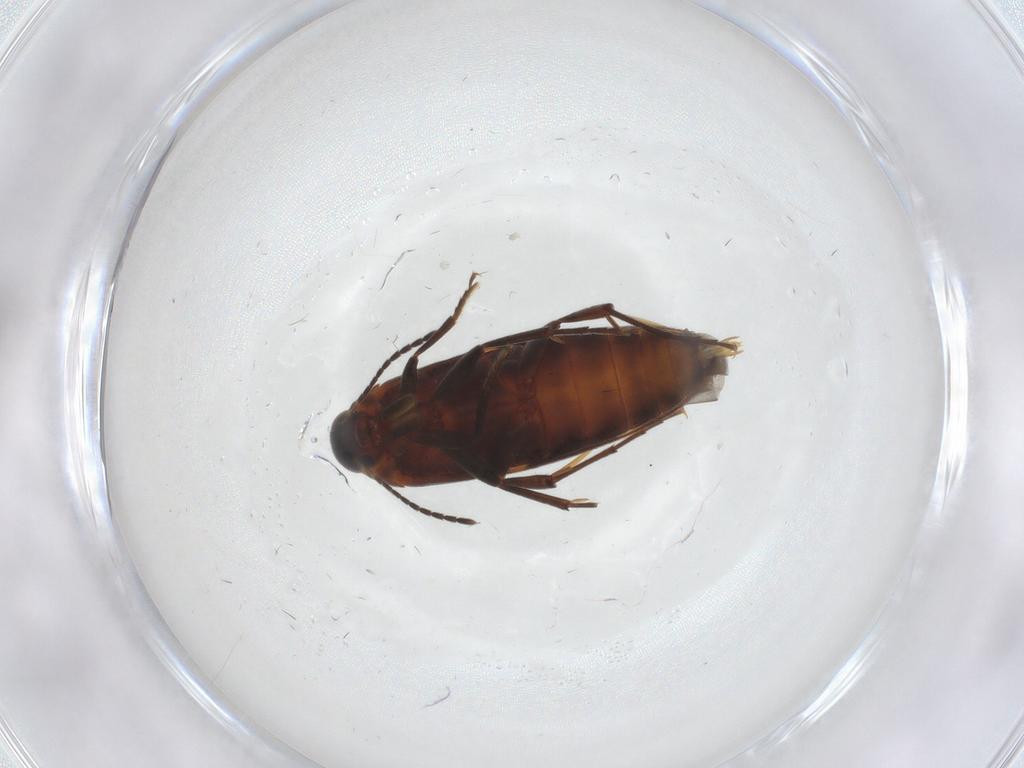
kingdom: Animalia
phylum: Arthropoda
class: Insecta
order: Coleoptera
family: Melandryidae
